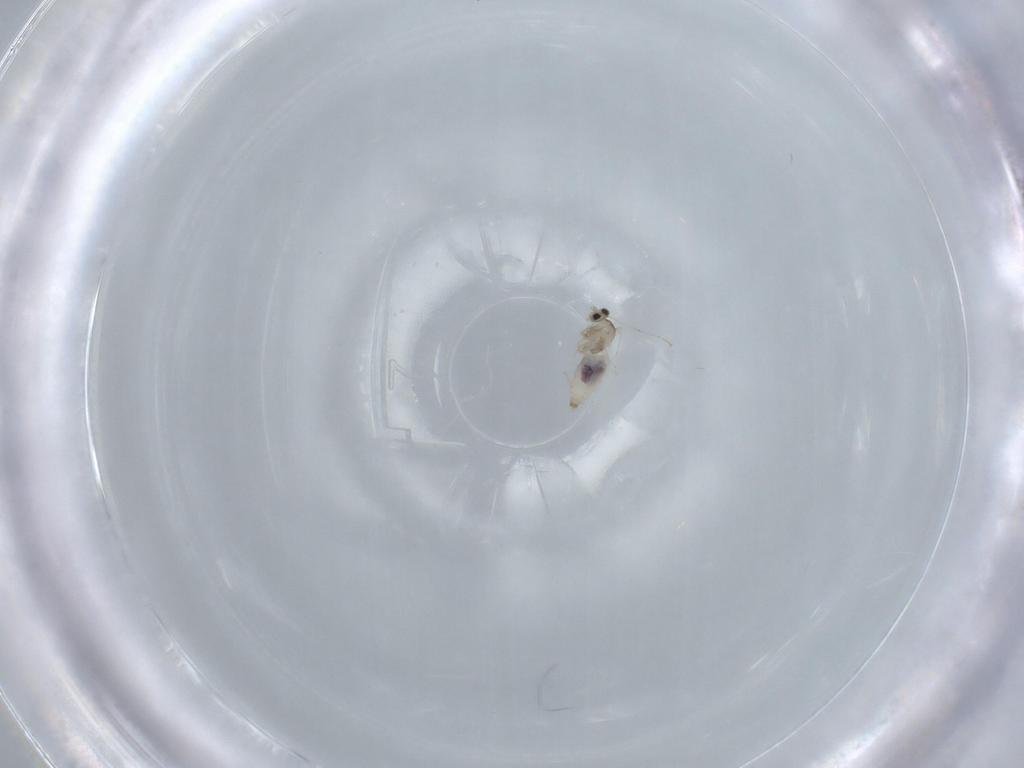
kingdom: Animalia
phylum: Arthropoda
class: Insecta
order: Diptera
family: Cecidomyiidae
